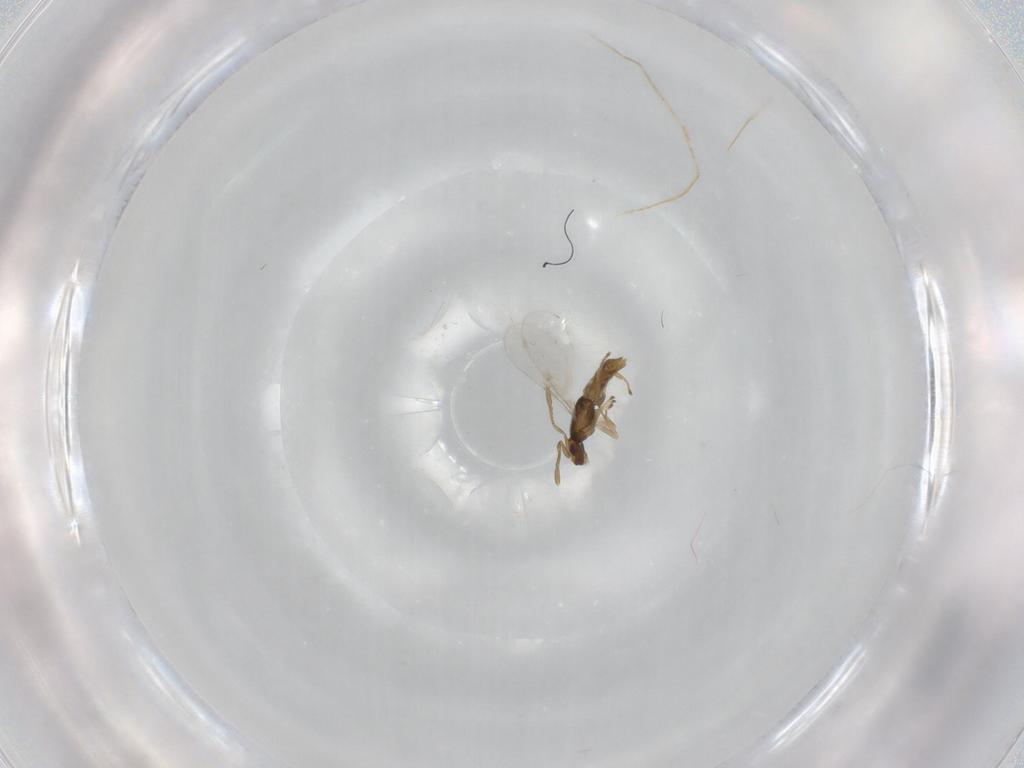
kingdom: Animalia
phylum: Arthropoda
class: Insecta
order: Hymenoptera
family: Encyrtidae
